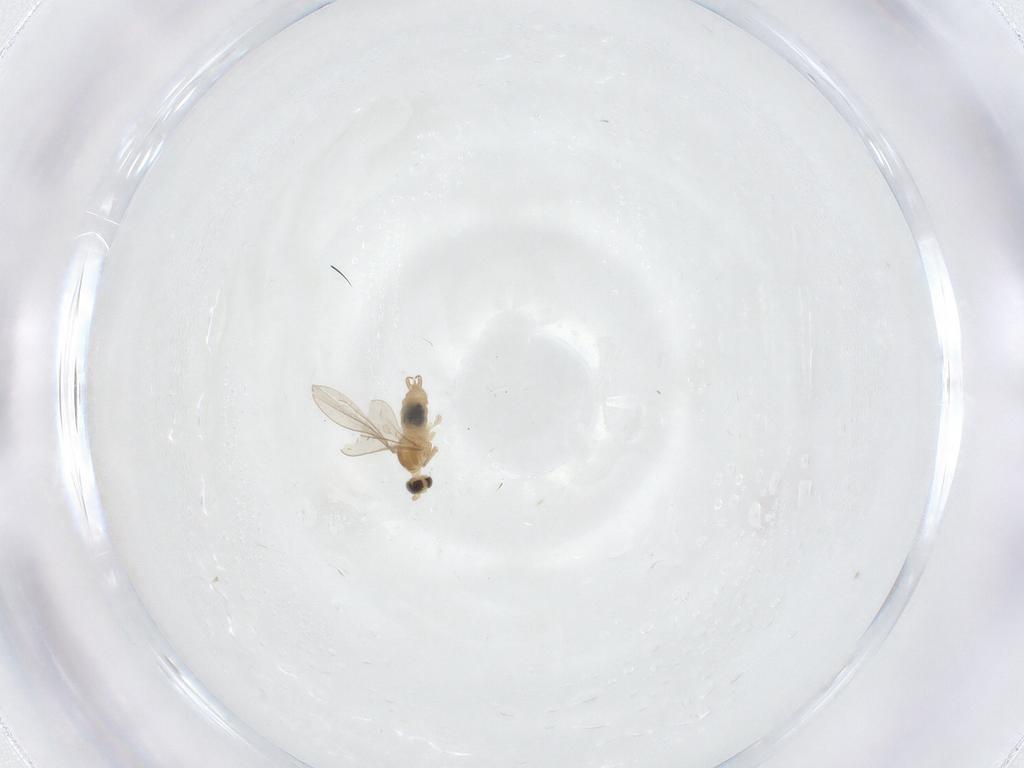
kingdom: Animalia
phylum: Arthropoda
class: Insecta
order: Diptera
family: Cecidomyiidae
